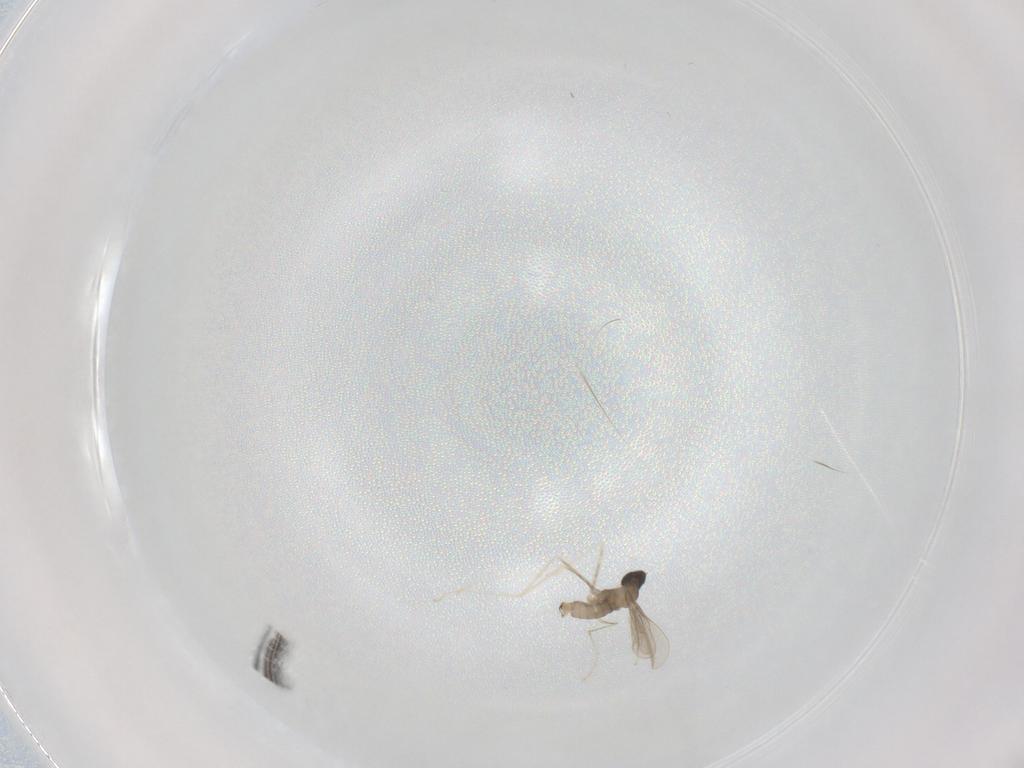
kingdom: Animalia
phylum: Arthropoda
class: Insecta
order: Diptera
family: Cecidomyiidae
